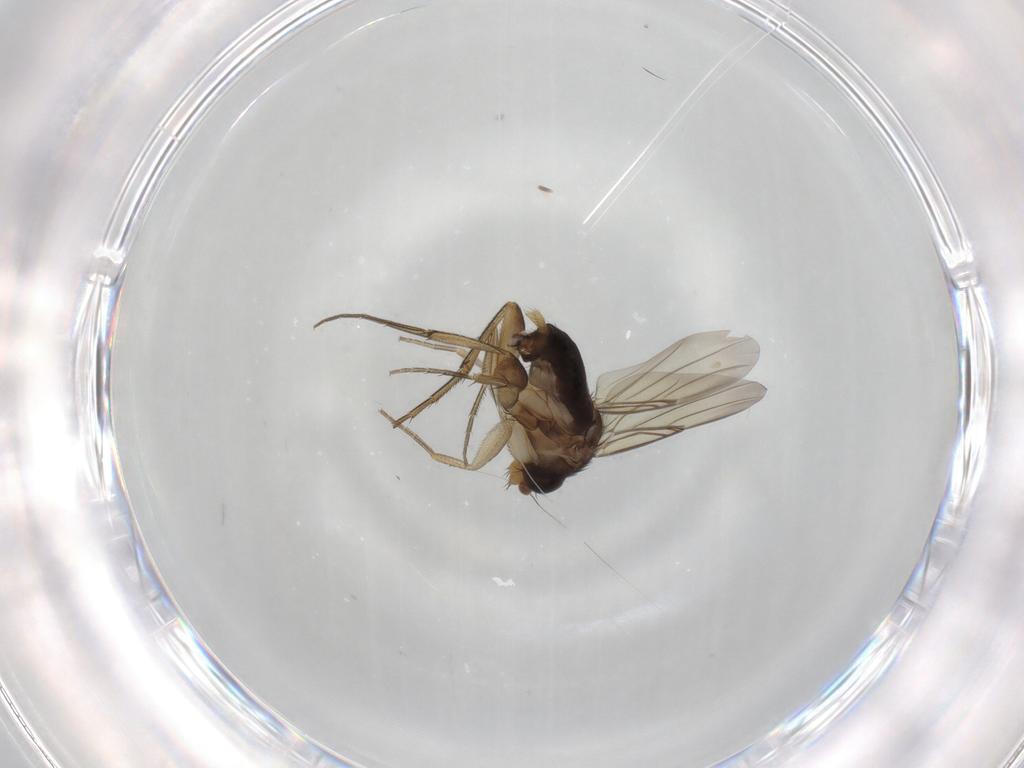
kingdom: Animalia
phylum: Arthropoda
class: Insecta
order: Diptera
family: Phoridae
